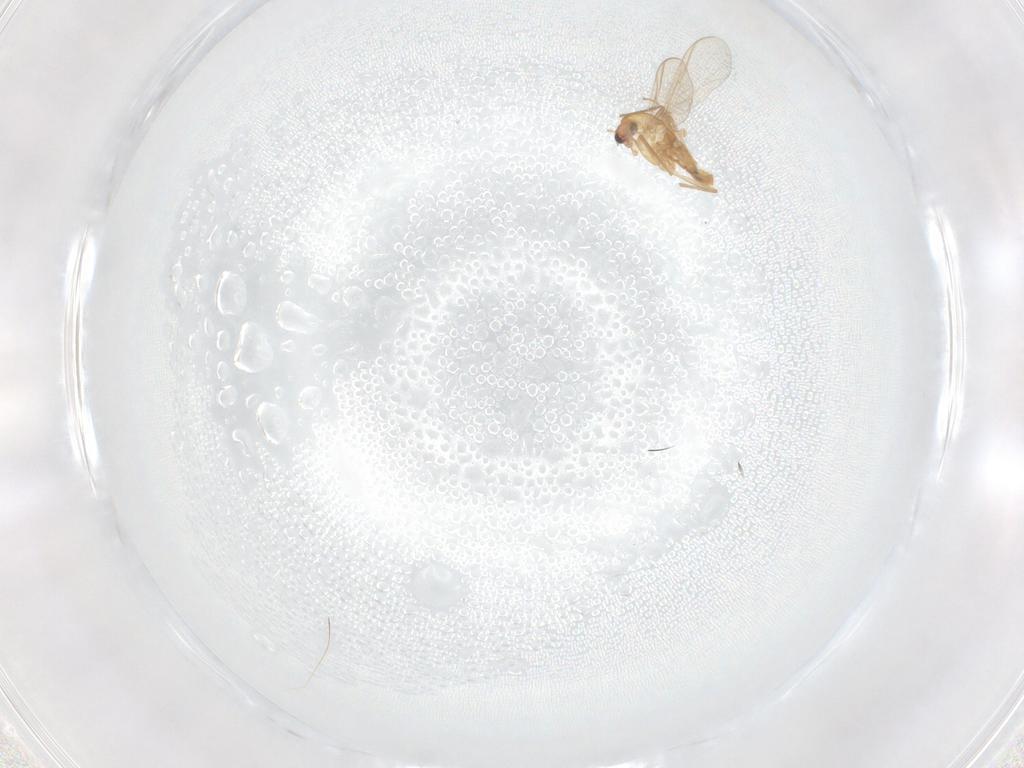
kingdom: Animalia
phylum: Arthropoda
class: Insecta
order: Diptera
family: Chironomidae
